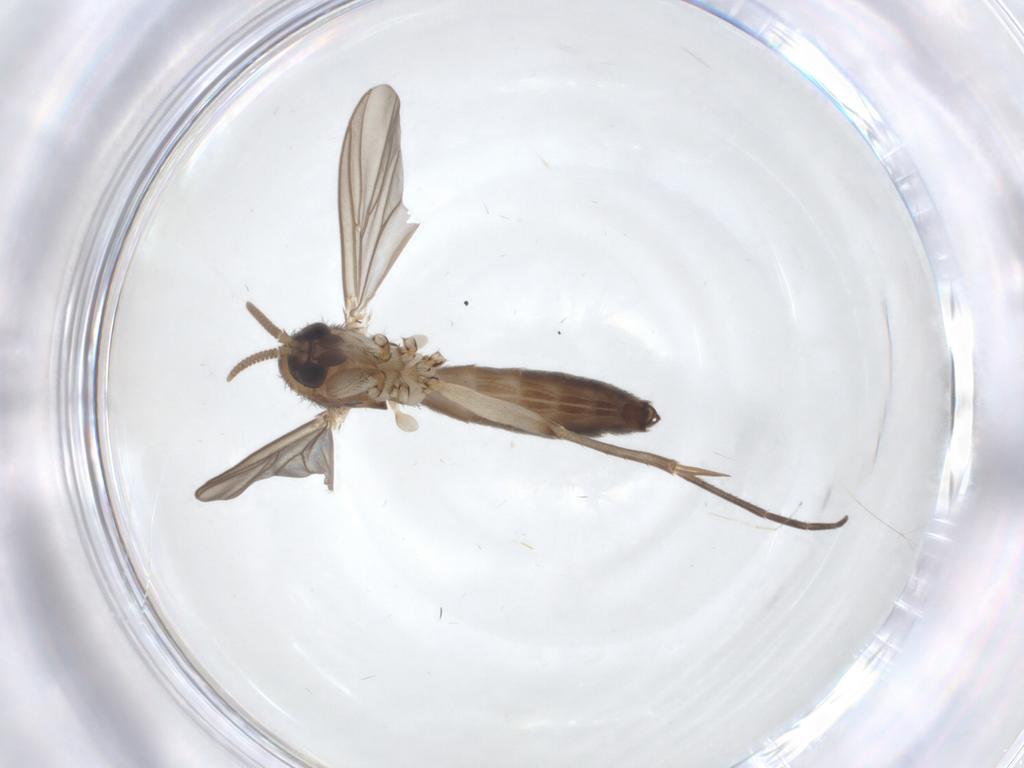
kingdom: Animalia
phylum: Arthropoda
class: Insecta
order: Diptera
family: Mycetophilidae
